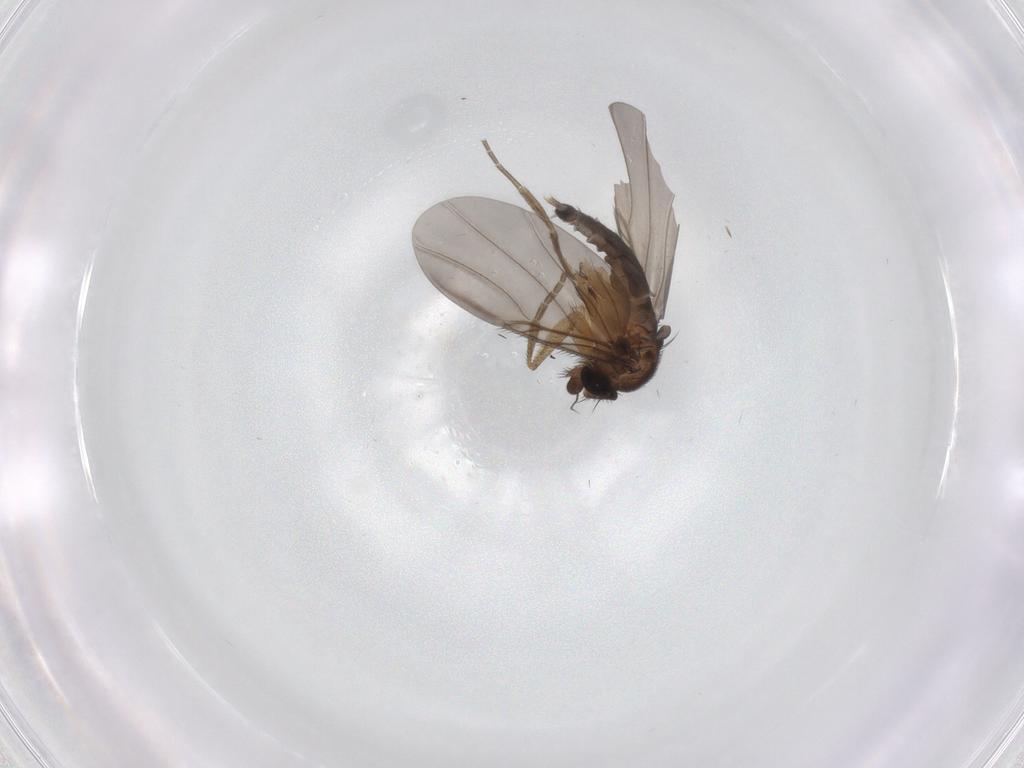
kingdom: Animalia
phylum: Arthropoda
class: Insecta
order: Diptera
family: Phoridae
